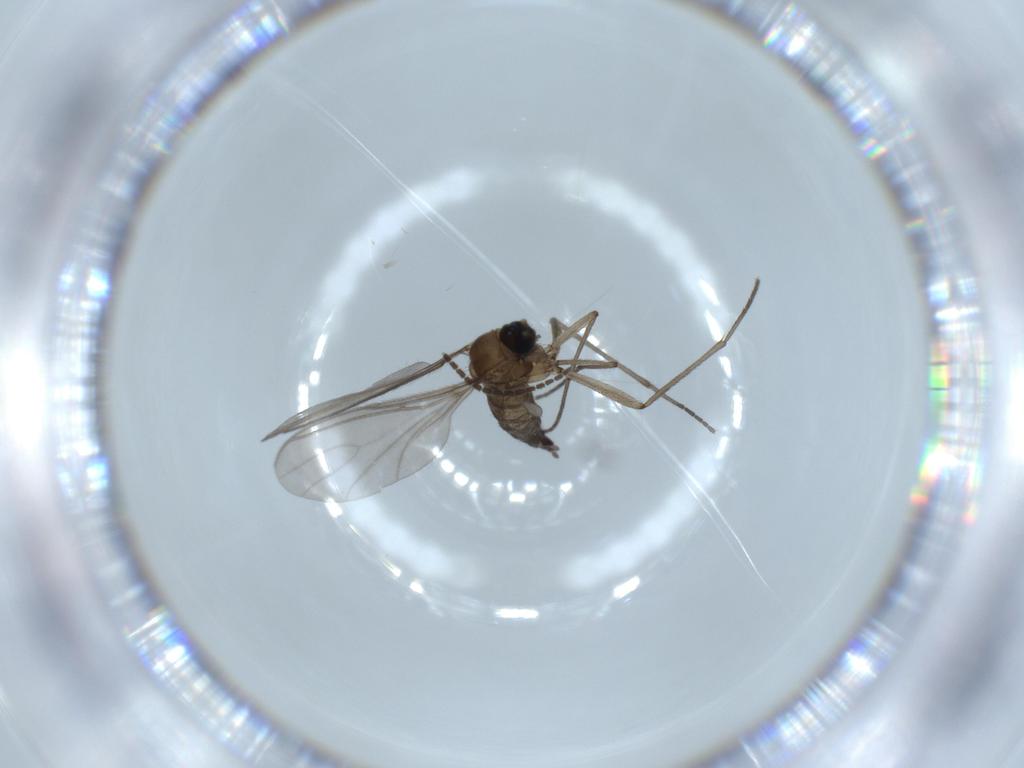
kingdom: Animalia
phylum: Arthropoda
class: Insecta
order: Diptera
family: Sciaridae
